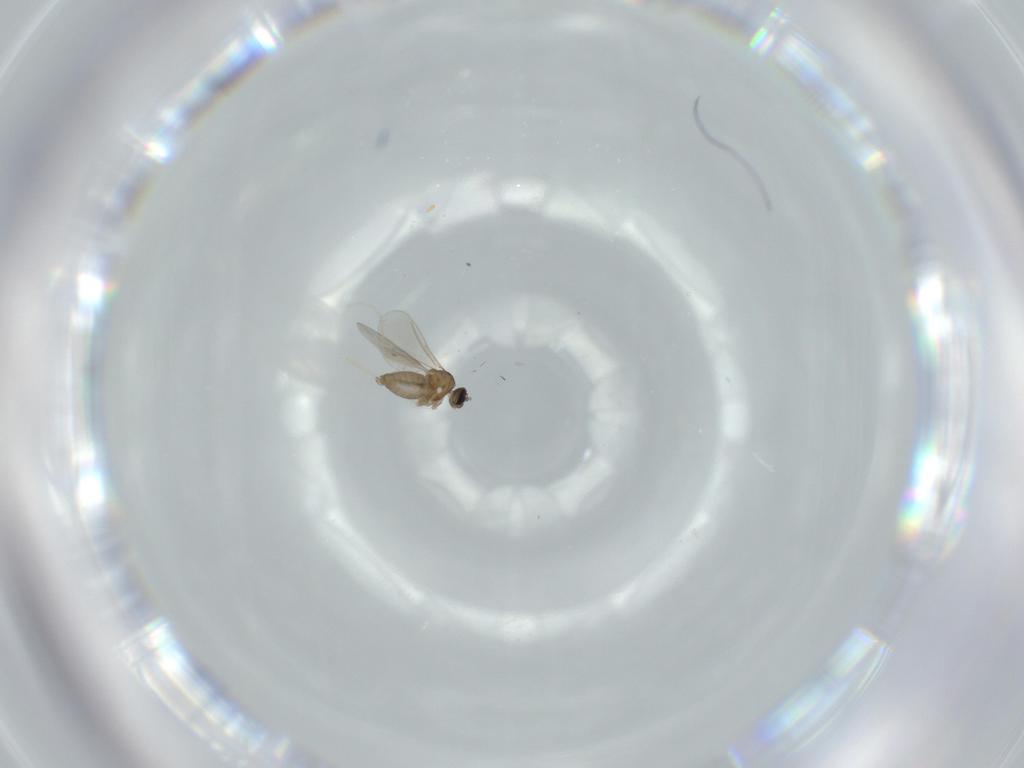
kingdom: Animalia
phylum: Arthropoda
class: Insecta
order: Diptera
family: Cecidomyiidae
